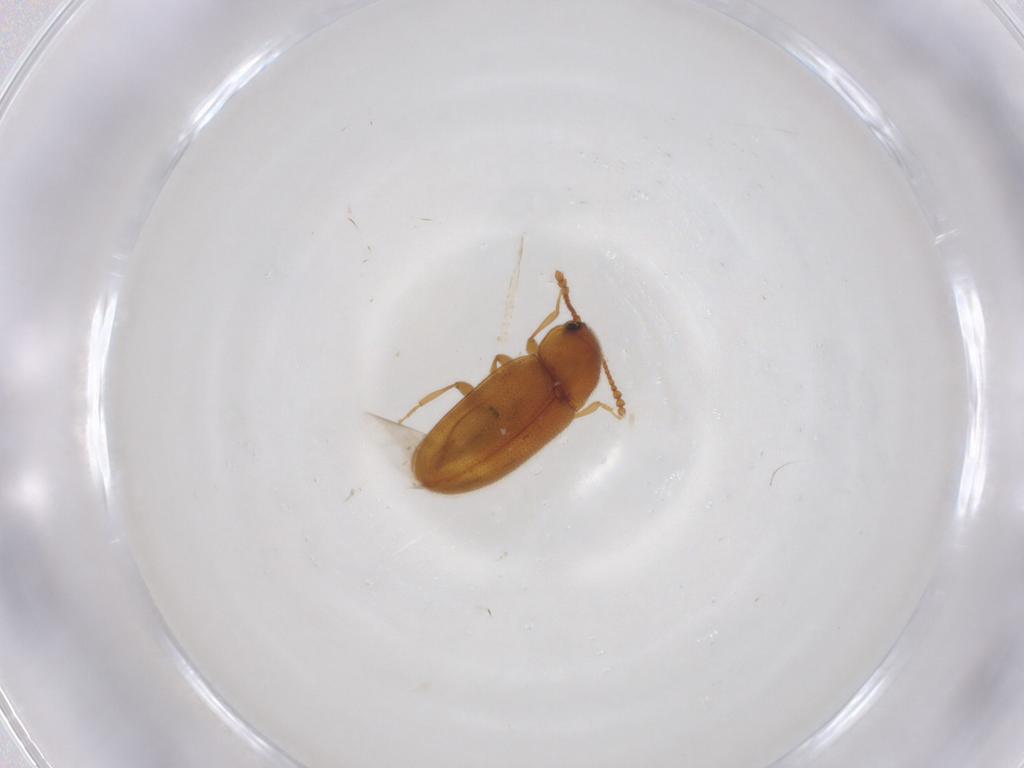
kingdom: Animalia
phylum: Arthropoda
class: Insecta
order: Coleoptera
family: Erotylidae
